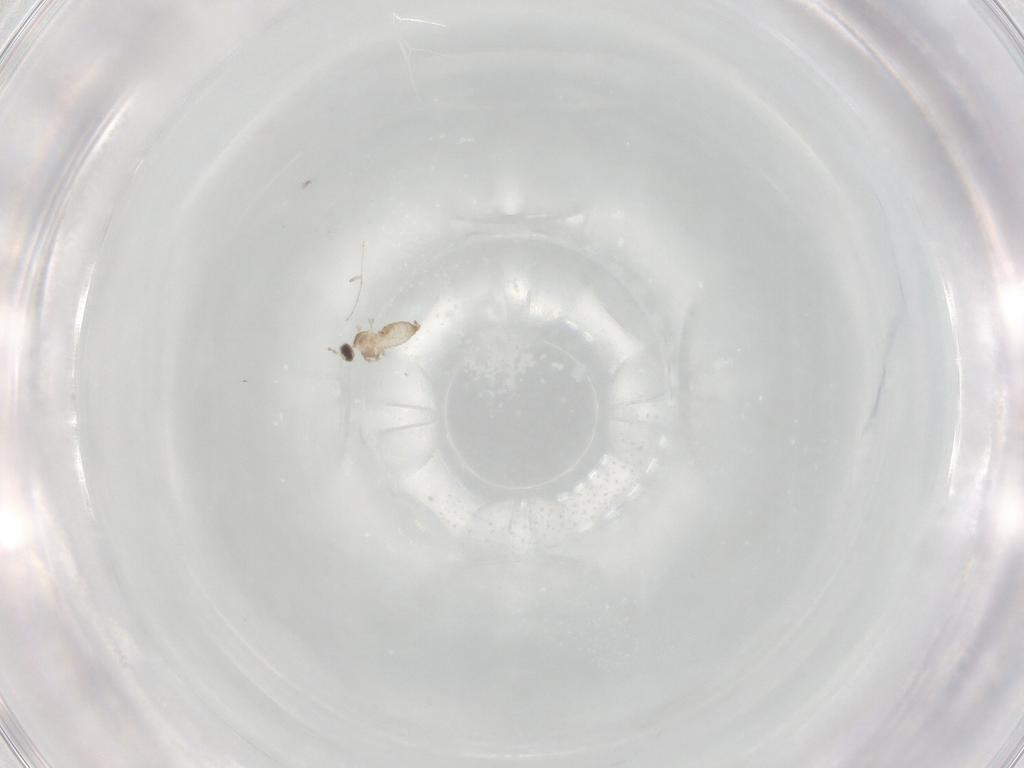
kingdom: Animalia
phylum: Arthropoda
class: Insecta
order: Diptera
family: Cecidomyiidae
